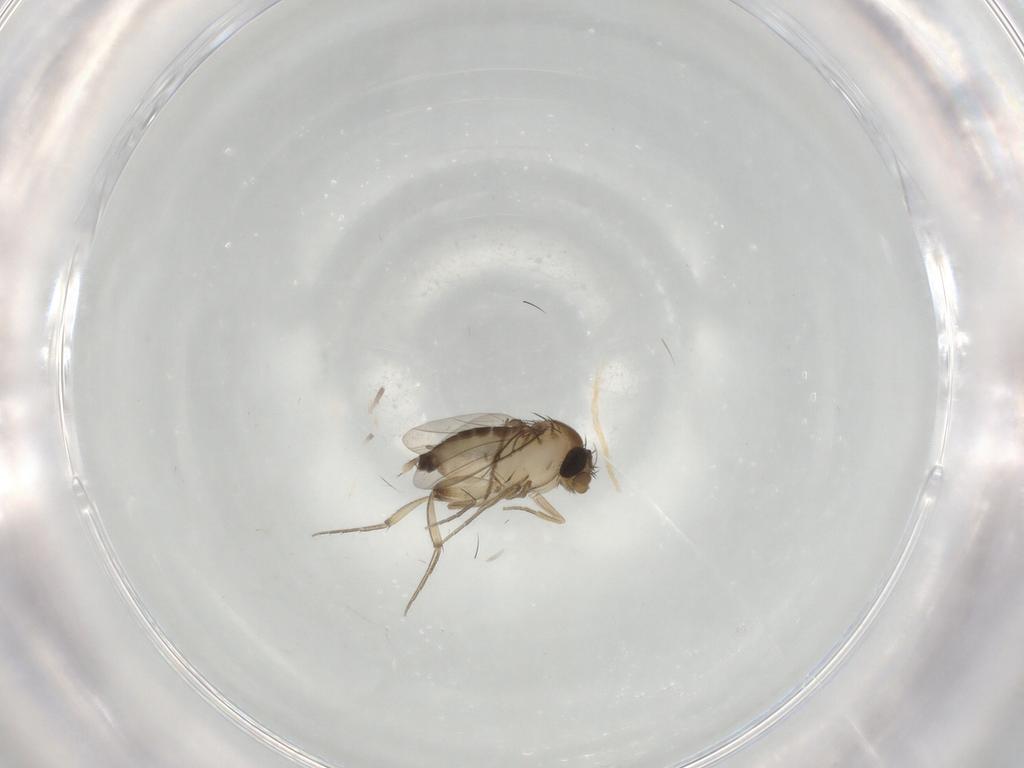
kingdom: Animalia
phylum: Arthropoda
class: Insecta
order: Diptera
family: Phoridae
